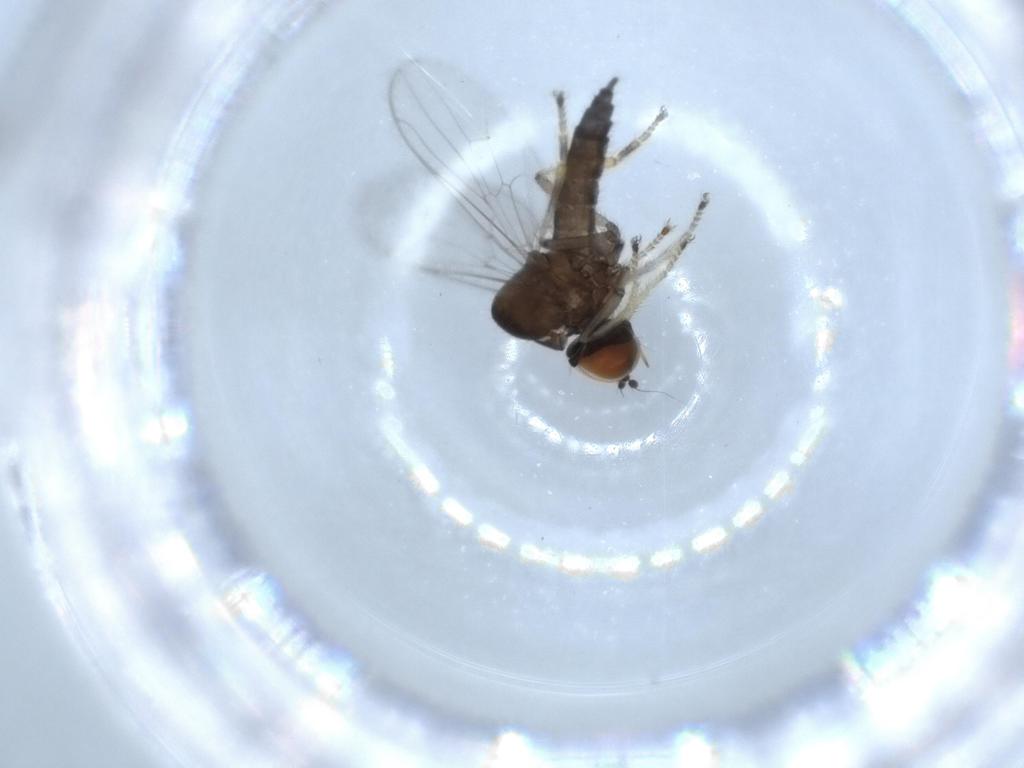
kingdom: Animalia
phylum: Arthropoda
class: Insecta
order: Diptera
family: Hybotidae
